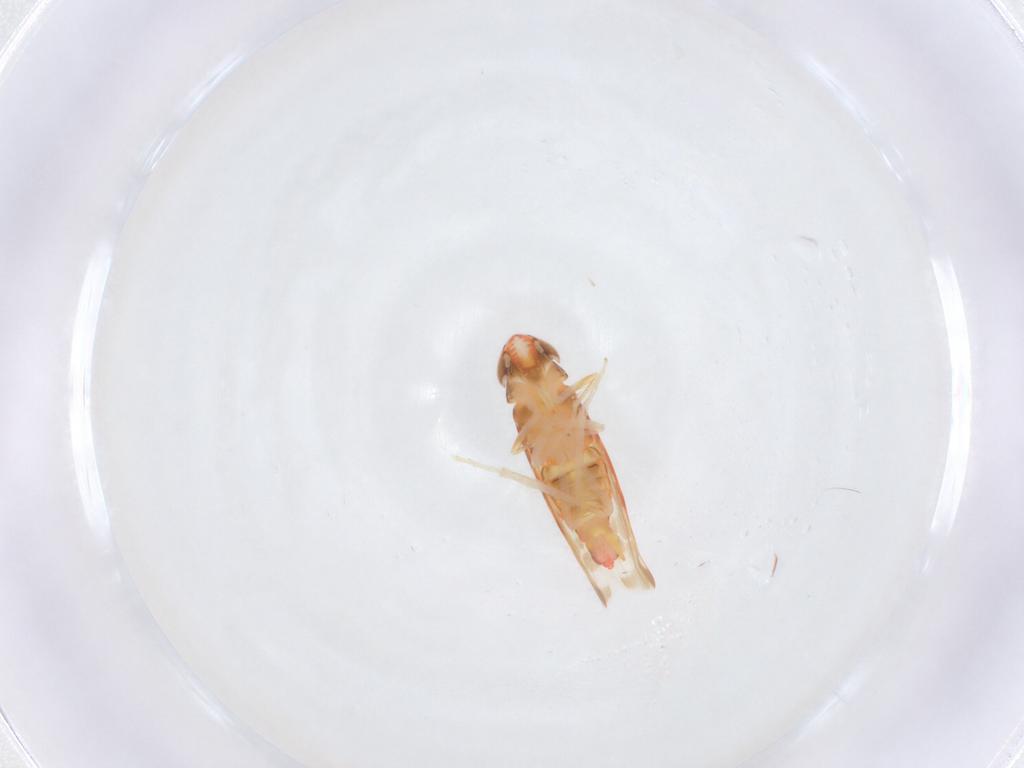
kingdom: Animalia
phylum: Arthropoda
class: Insecta
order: Hemiptera
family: Cicadellidae
